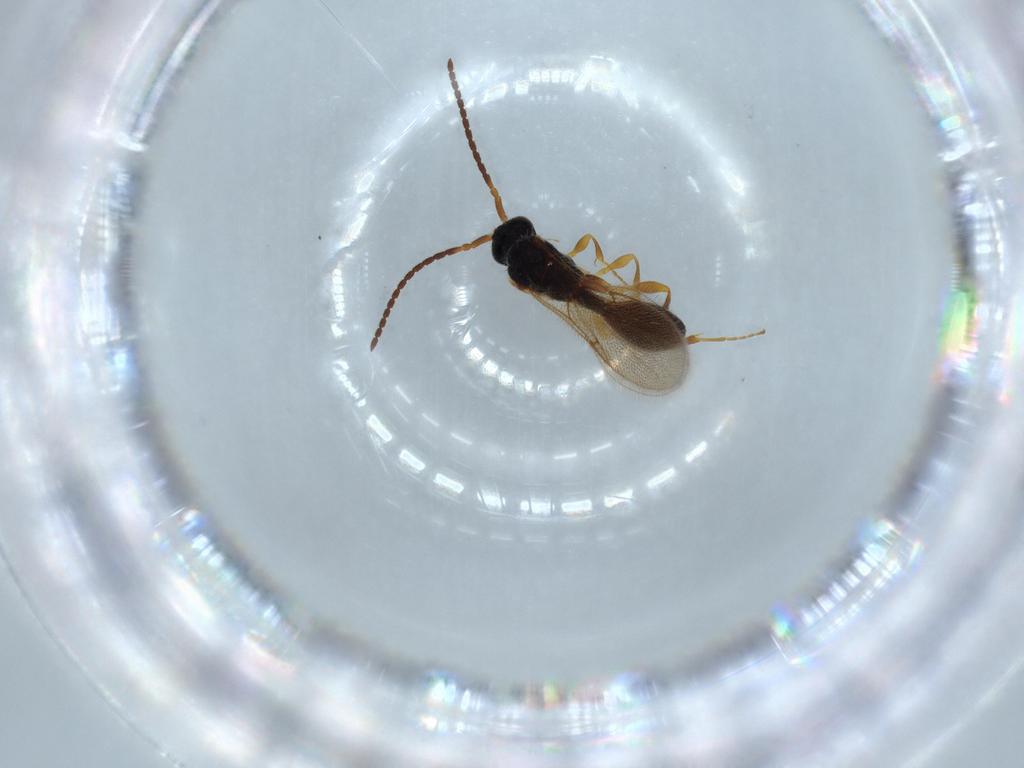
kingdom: Animalia
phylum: Arthropoda
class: Insecta
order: Hymenoptera
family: Diapriidae
